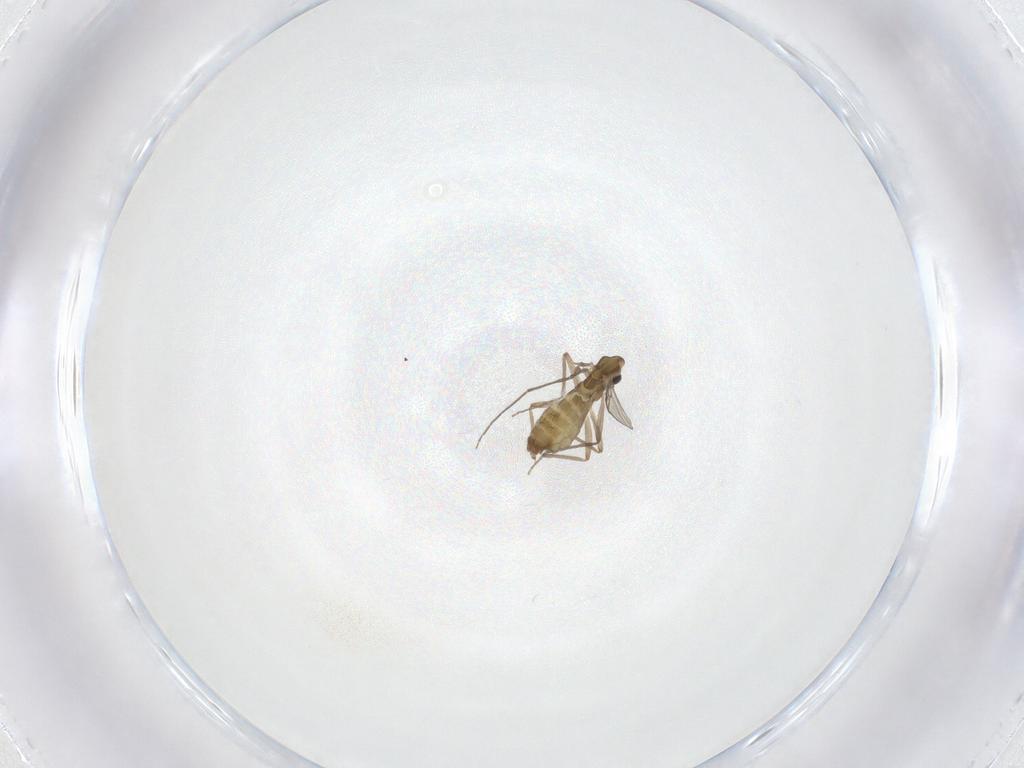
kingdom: Animalia
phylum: Arthropoda
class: Insecta
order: Diptera
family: Chironomidae
